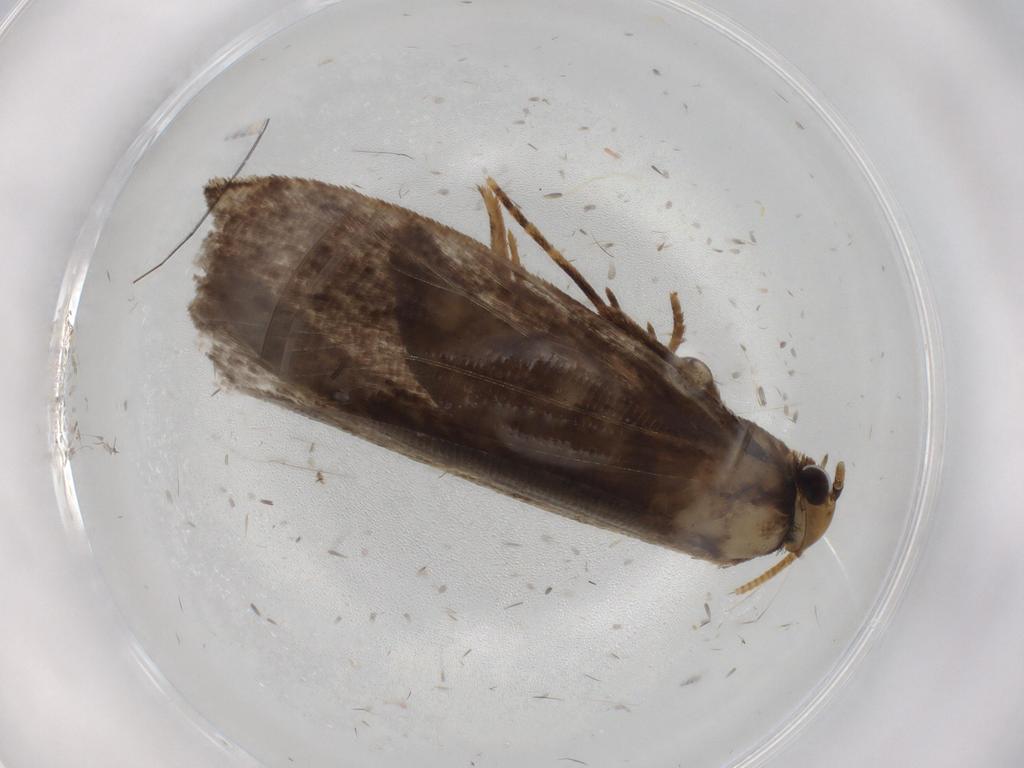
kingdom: Animalia
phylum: Arthropoda
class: Insecta
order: Lepidoptera
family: Tineidae
